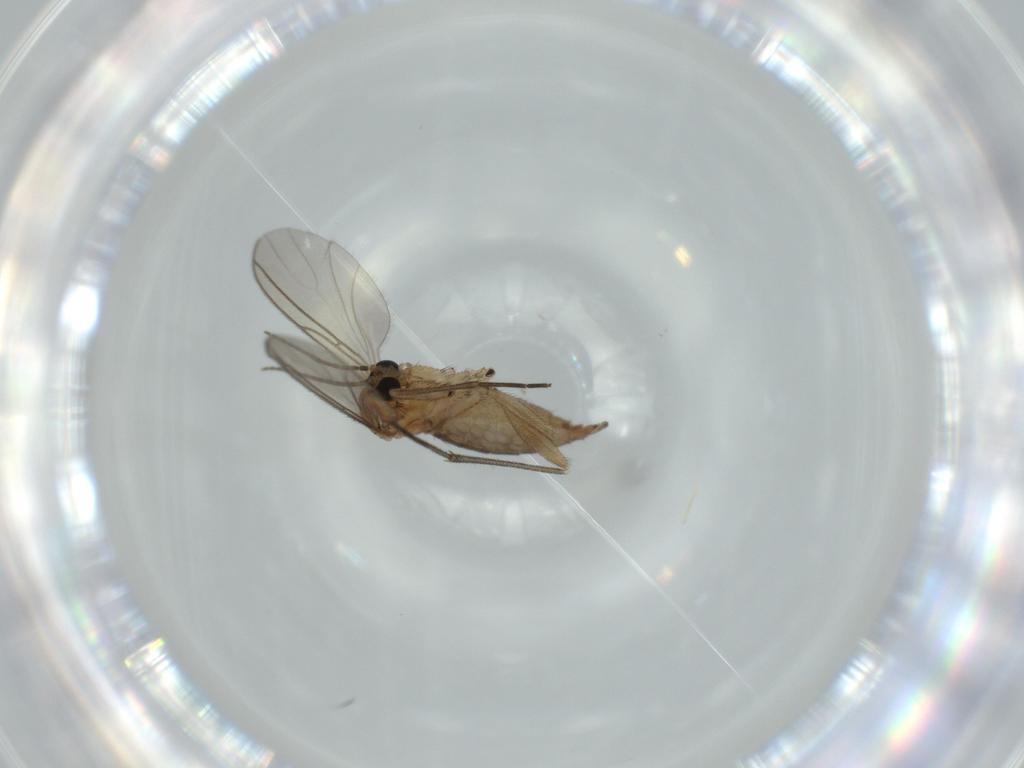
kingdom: Animalia
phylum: Arthropoda
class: Insecta
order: Diptera
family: Sciaridae
